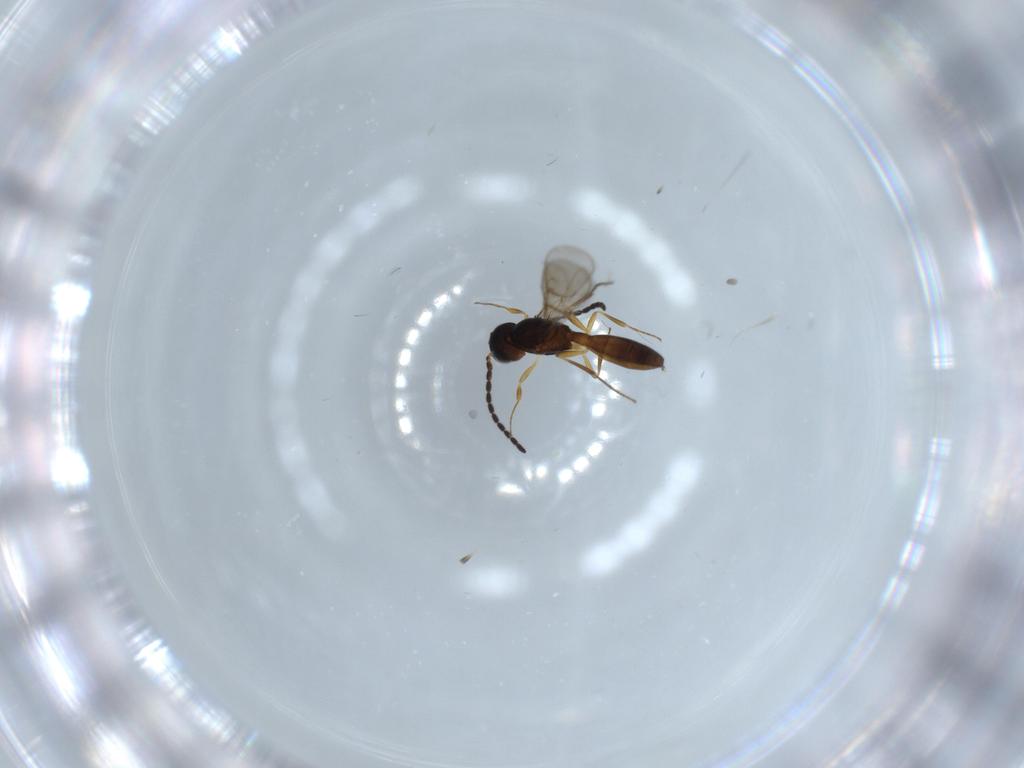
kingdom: Animalia
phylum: Arthropoda
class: Insecta
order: Hymenoptera
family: Scelionidae
